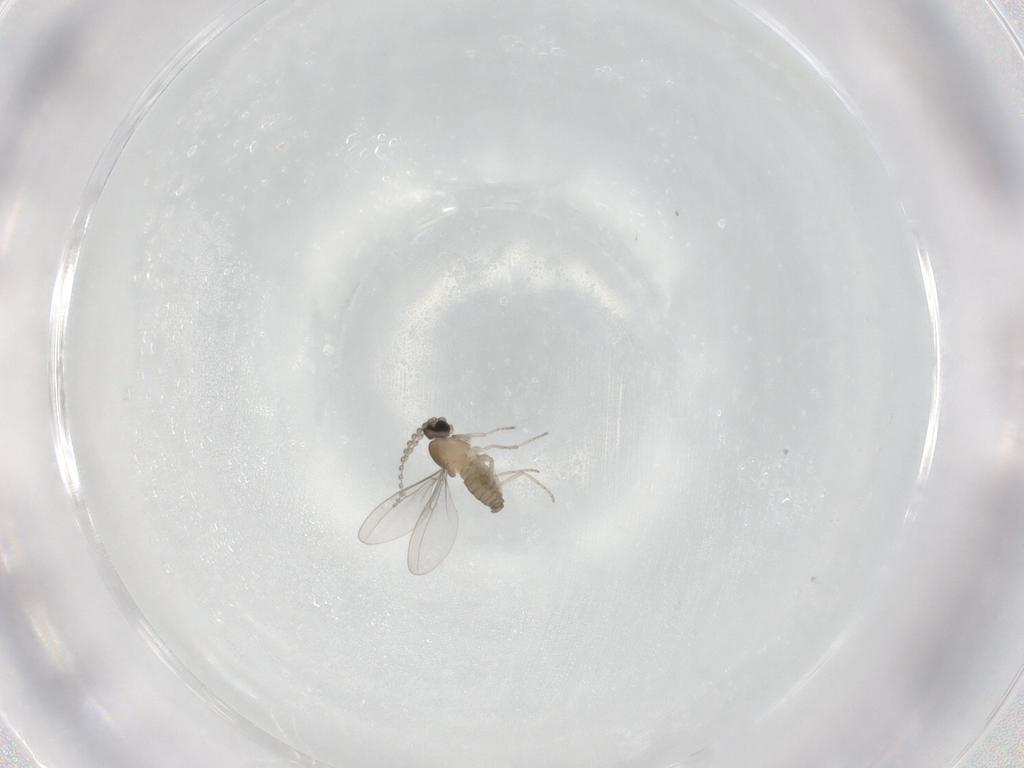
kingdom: Animalia
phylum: Arthropoda
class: Insecta
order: Diptera
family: Cecidomyiidae
